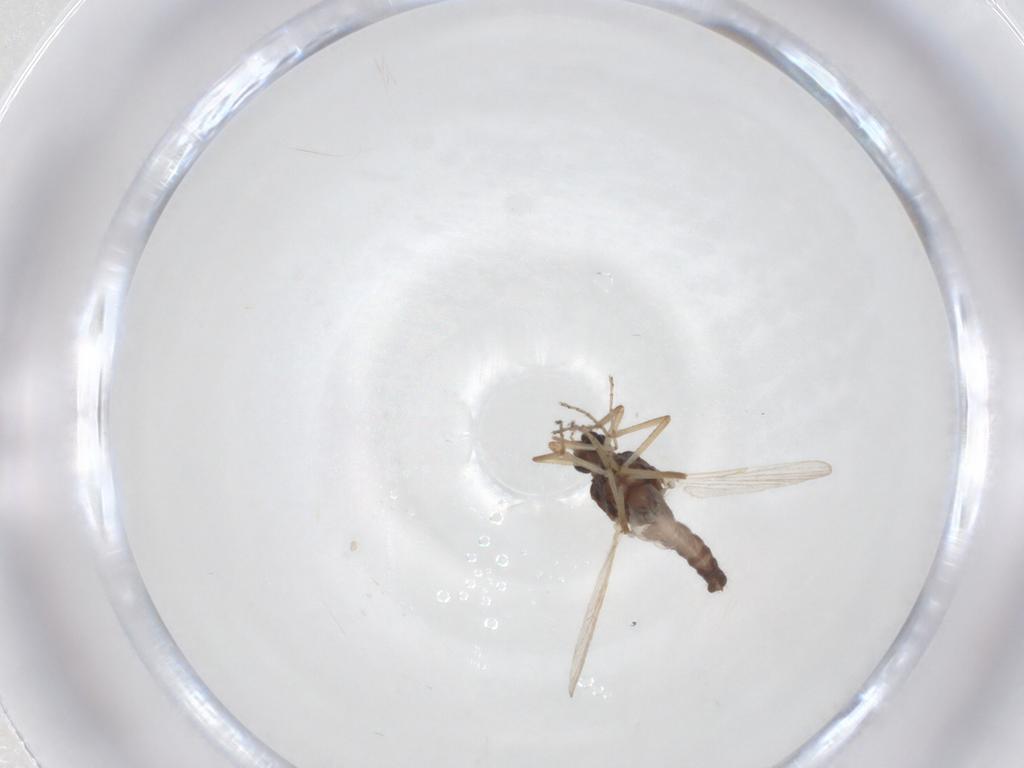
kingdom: Animalia
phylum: Arthropoda
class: Insecta
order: Diptera
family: Ceratopogonidae
